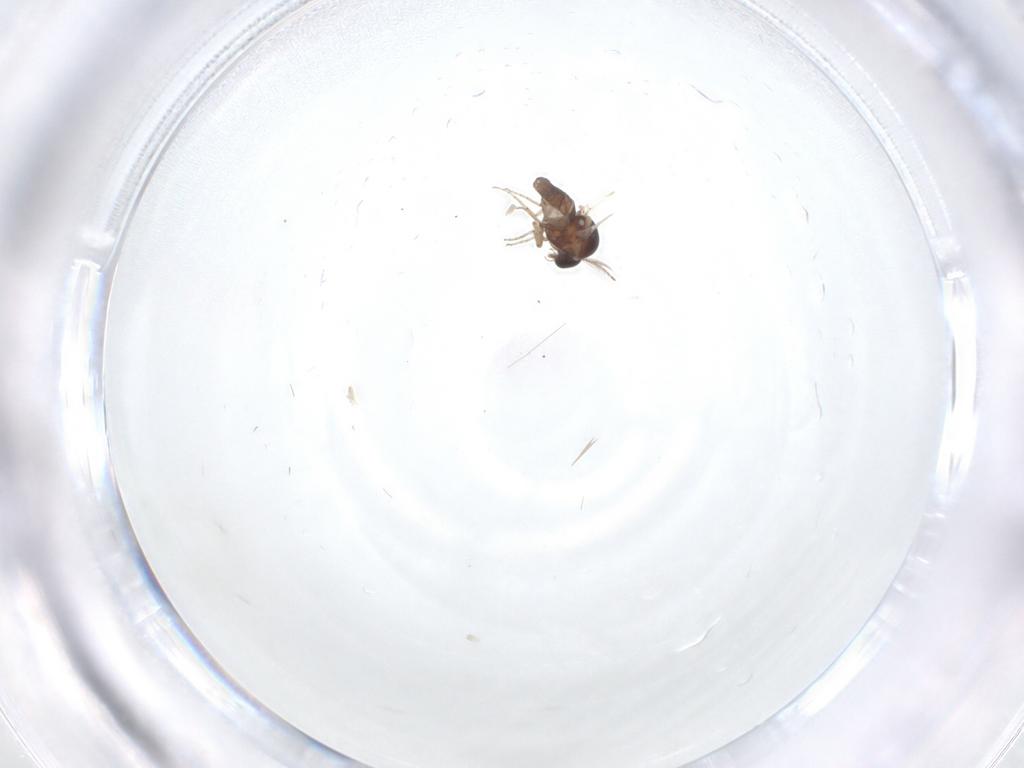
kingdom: Animalia
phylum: Arthropoda
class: Insecta
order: Diptera
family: Ceratopogonidae
